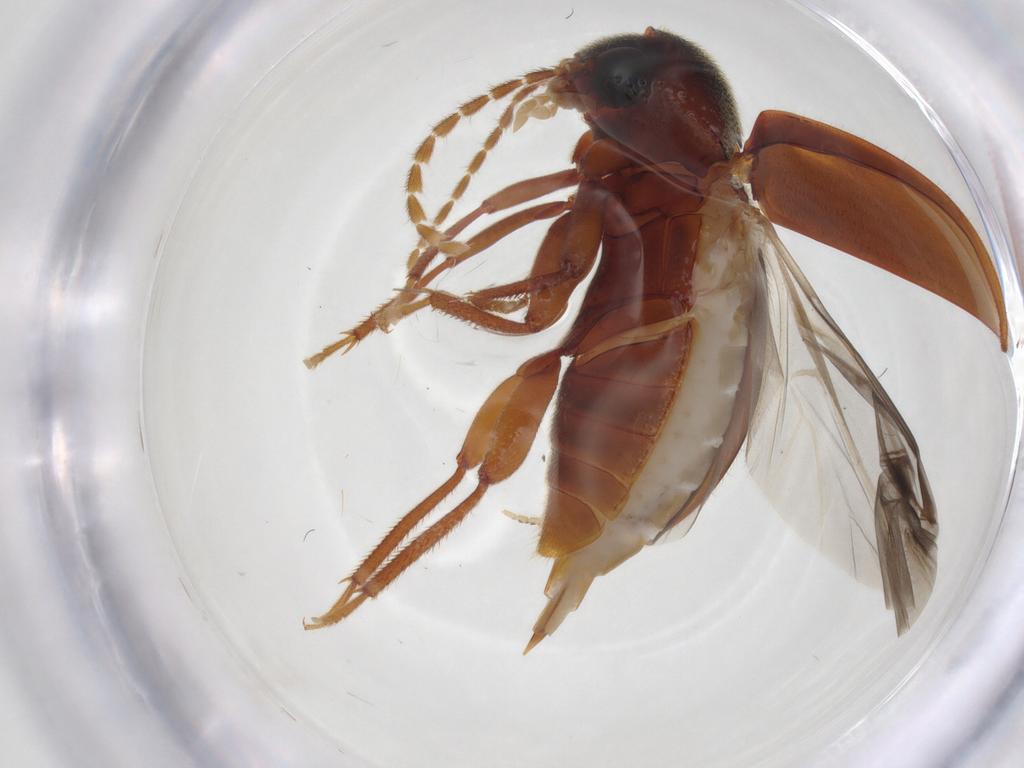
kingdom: Animalia
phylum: Arthropoda
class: Insecta
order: Coleoptera
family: Ptilodactylidae
